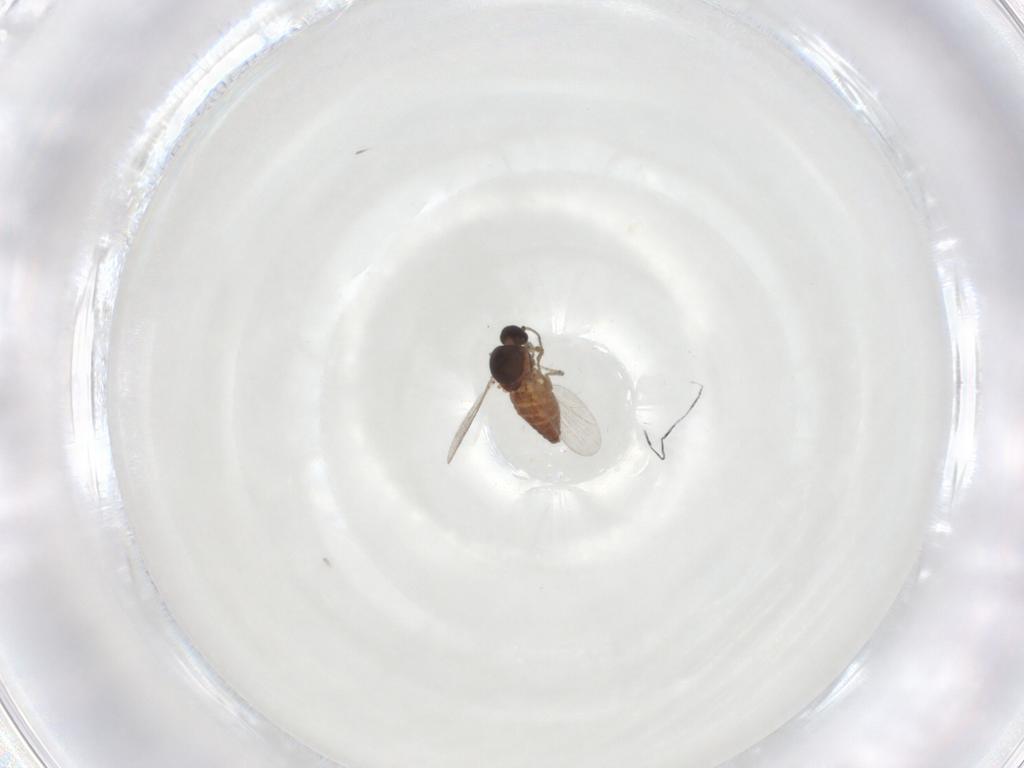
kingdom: Animalia
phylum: Arthropoda
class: Insecta
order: Diptera
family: Ceratopogonidae
